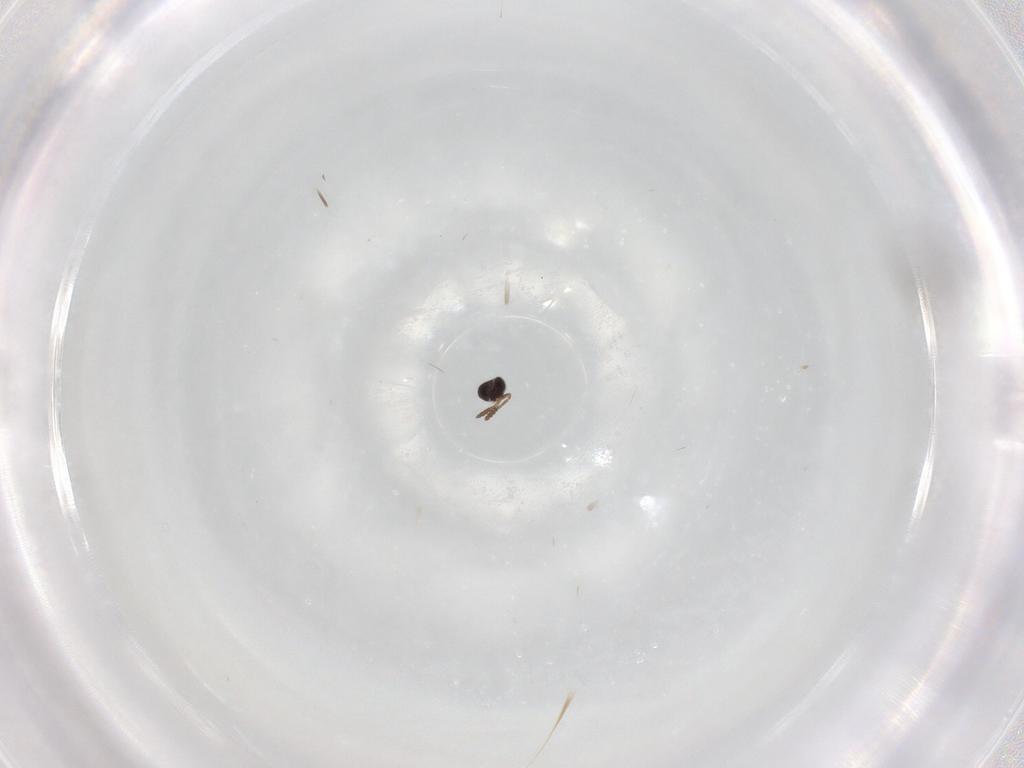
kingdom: Animalia
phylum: Arthropoda
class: Insecta
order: Hymenoptera
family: Scelionidae
